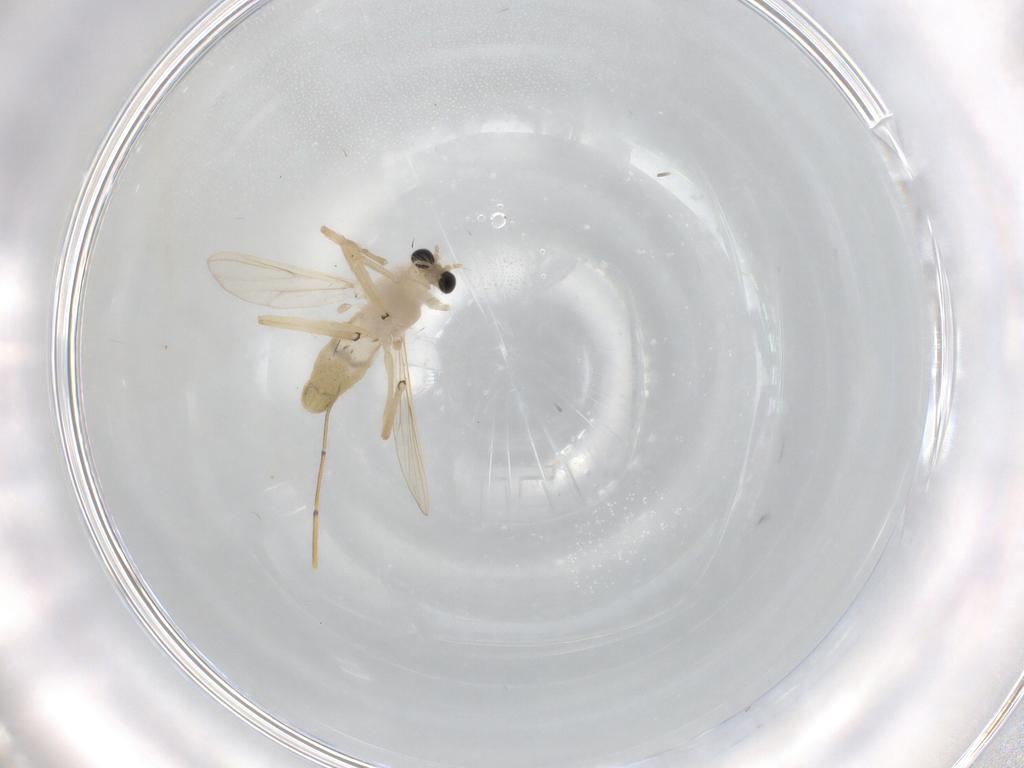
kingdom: Animalia
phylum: Arthropoda
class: Insecta
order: Diptera
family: Chironomidae
